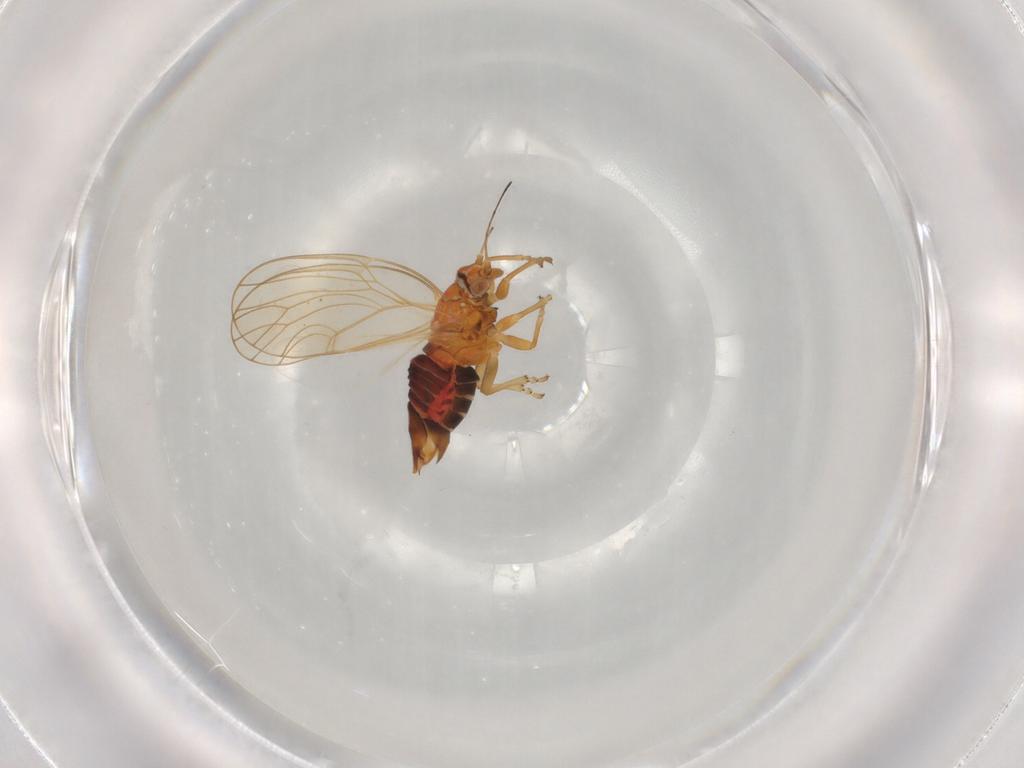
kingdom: Animalia
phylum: Arthropoda
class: Insecta
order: Hemiptera
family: Psyllidae
